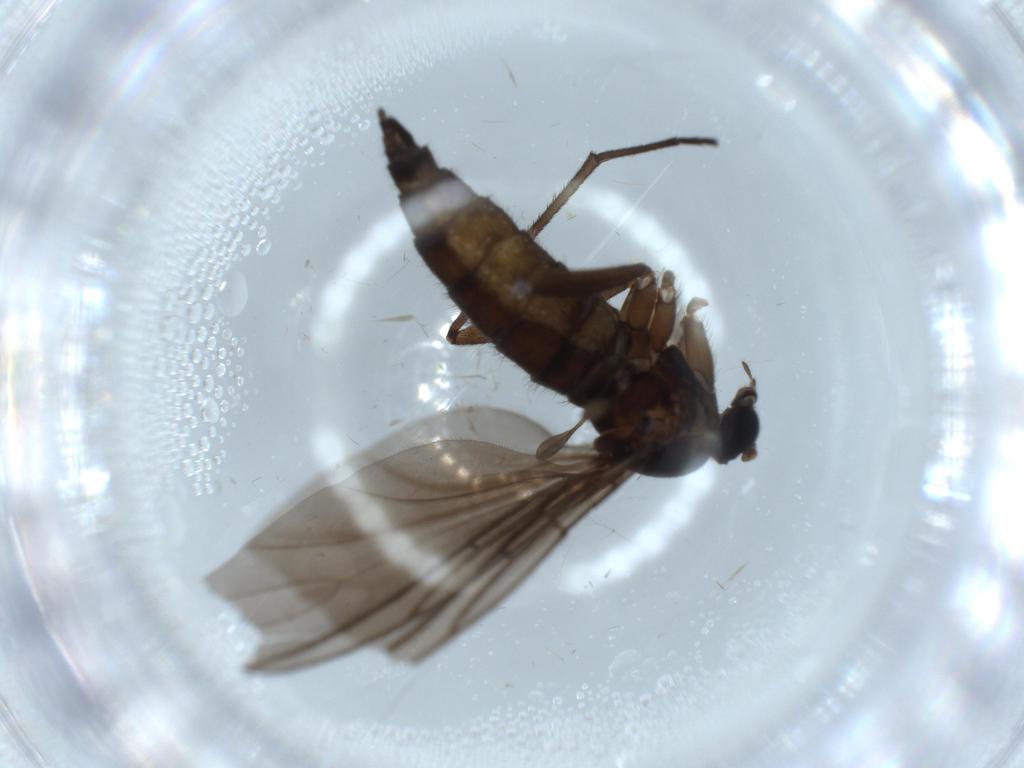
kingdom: Animalia
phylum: Arthropoda
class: Insecta
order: Diptera
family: Sciaridae
